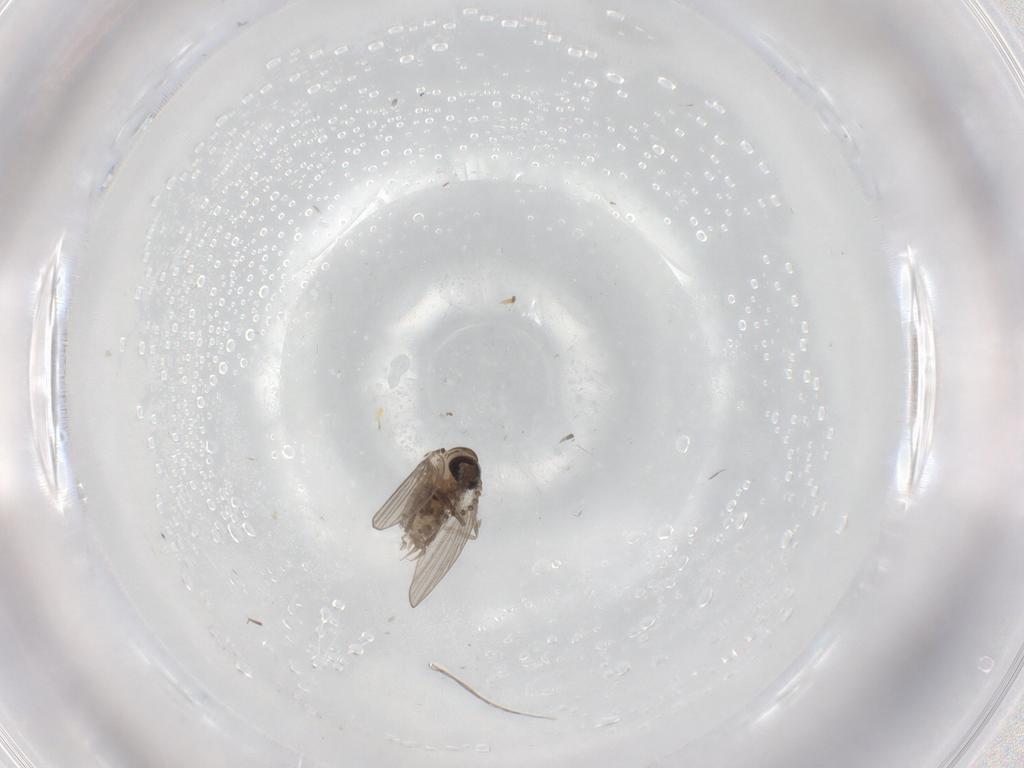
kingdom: Animalia
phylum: Arthropoda
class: Insecta
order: Diptera
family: Psychodidae
